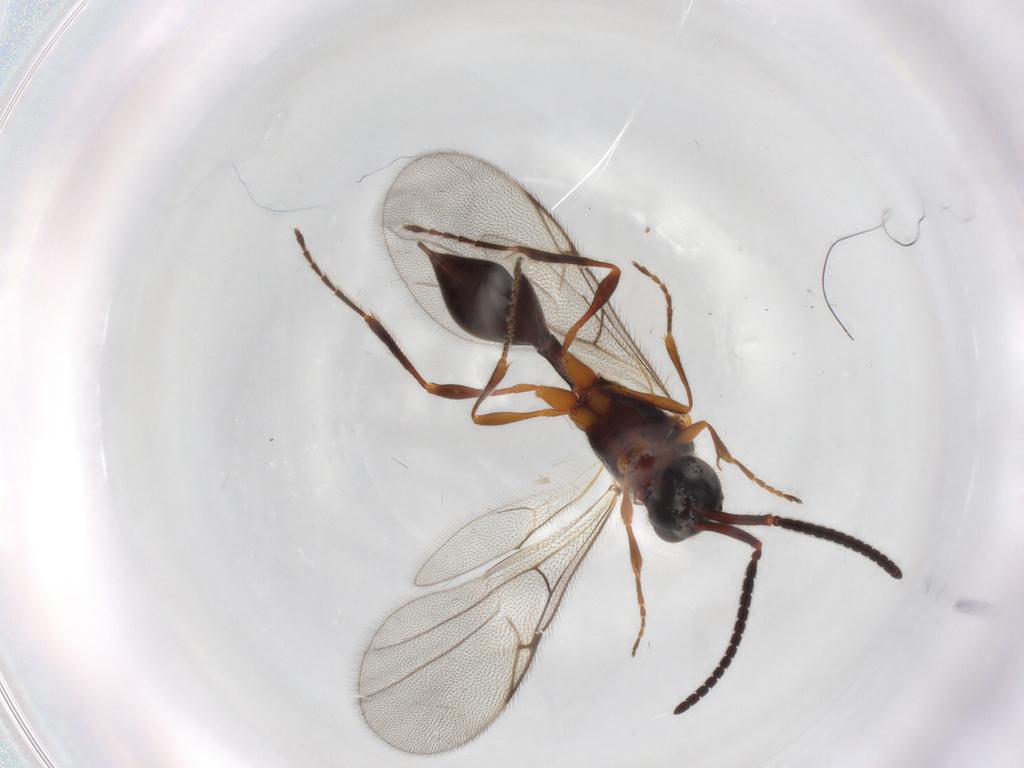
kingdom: Animalia
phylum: Arthropoda
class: Insecta
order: Hymenoptera
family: Diapriidae
